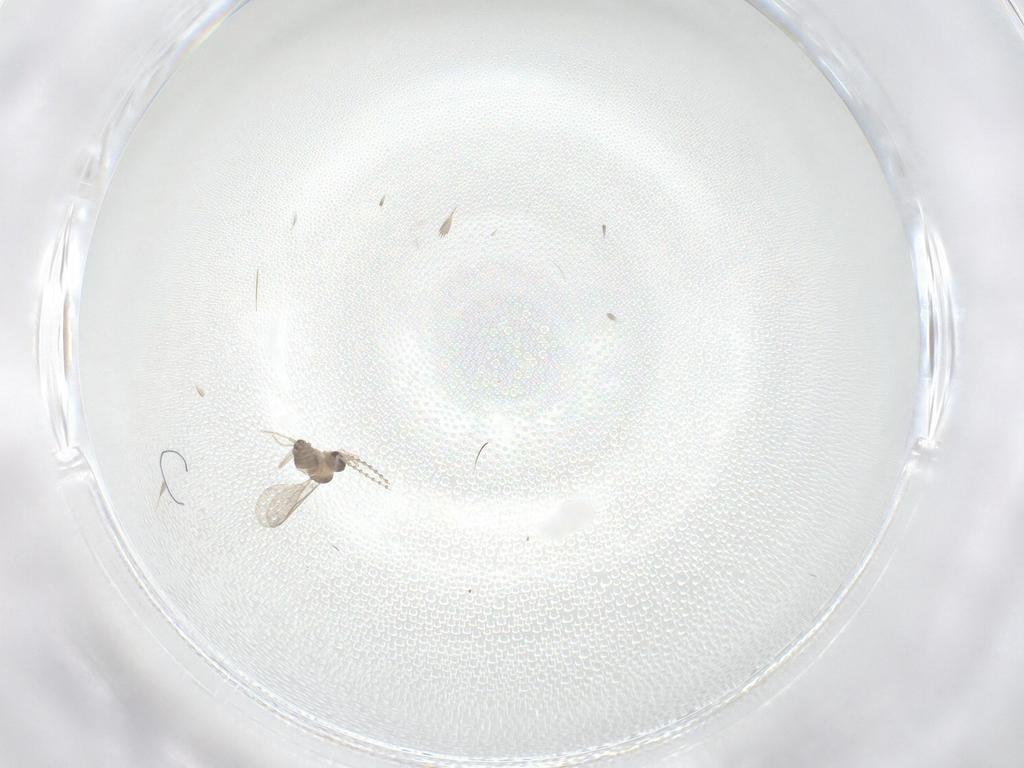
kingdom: Animalia
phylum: Arthropoda
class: Insecta
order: Diptera
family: Cecidomyiidae
